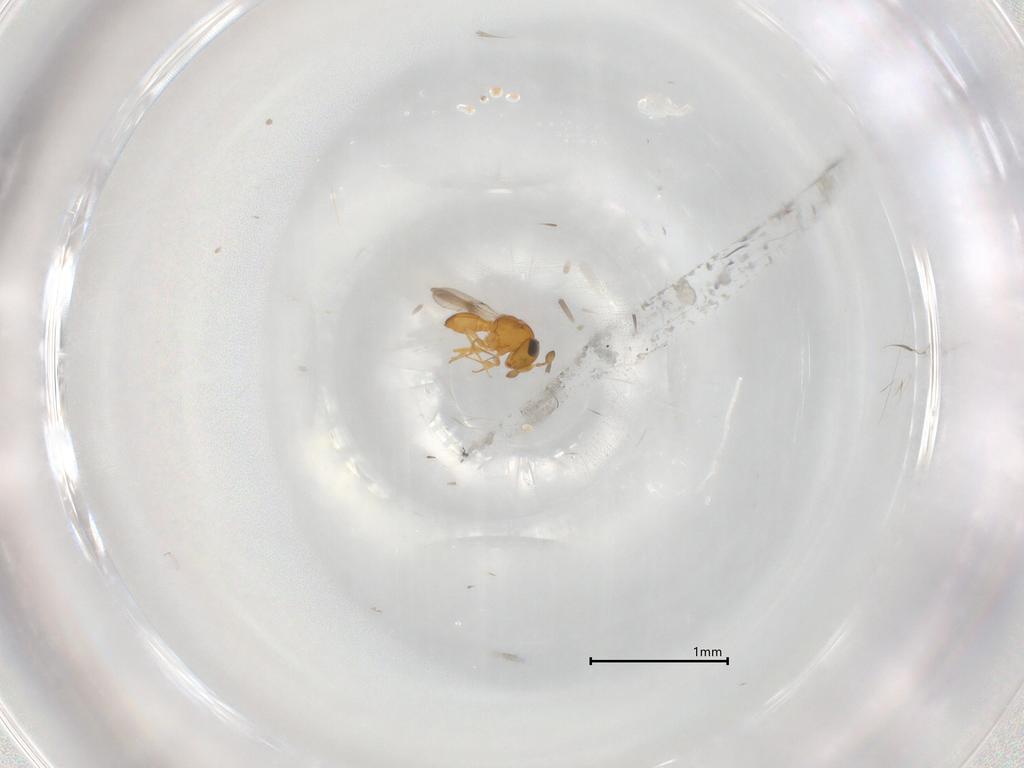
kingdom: Animalia
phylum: Arthropoda
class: Insecta
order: Hymenoptera
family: Scelionidae
